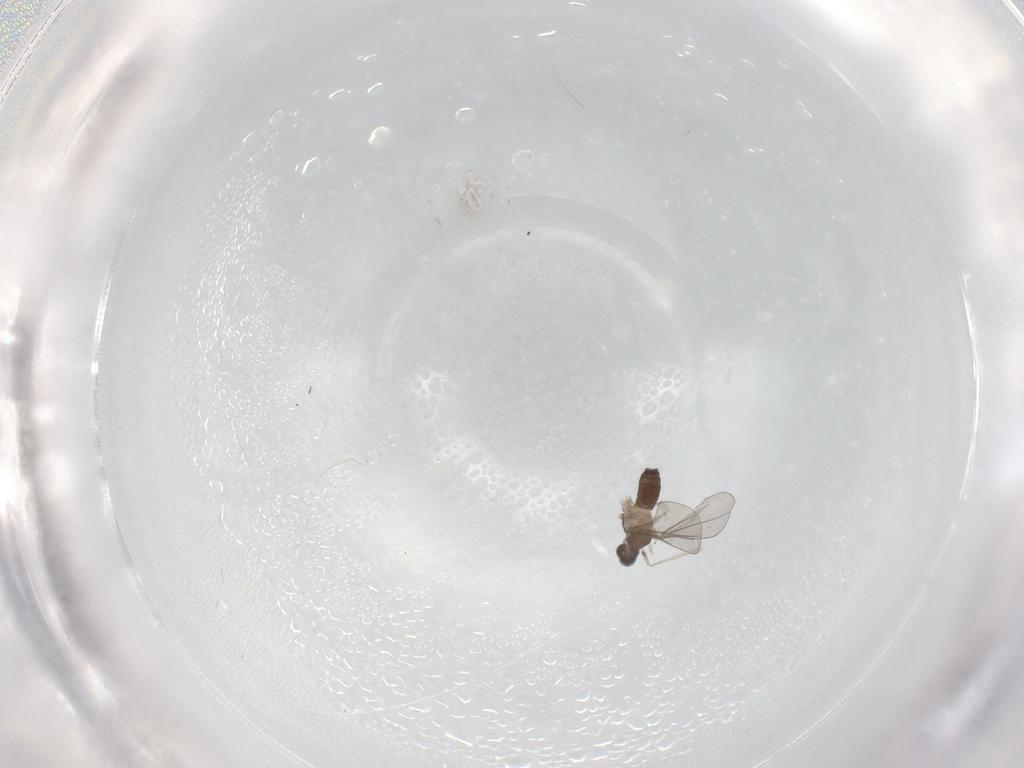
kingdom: Animalia
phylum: Arthropoda
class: Insecta
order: Diptera
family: Cecidomyiidae
